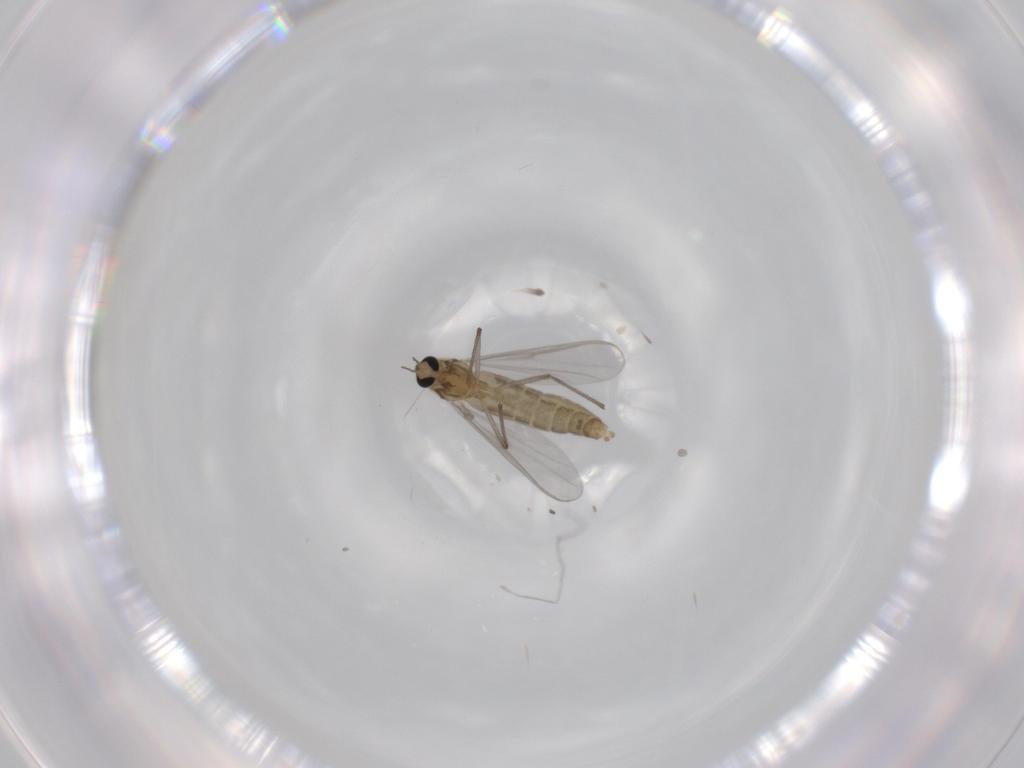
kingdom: Animalia
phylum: Arthropoda
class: Insecta
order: Diptera
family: Chironomidae
